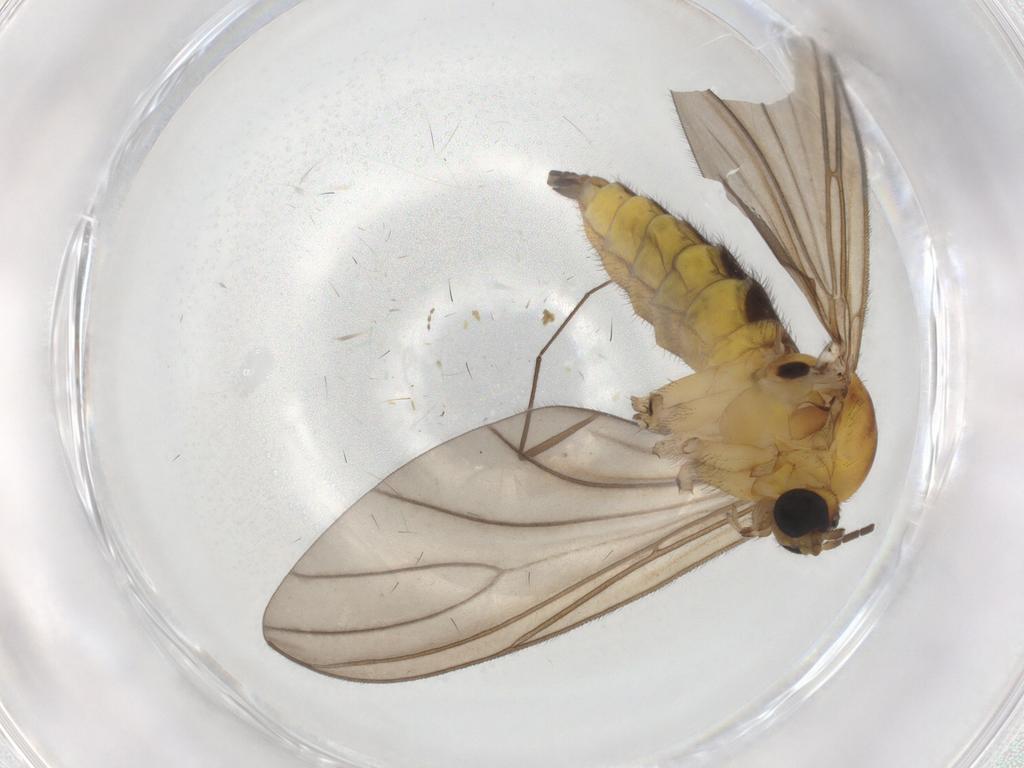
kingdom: Animalia
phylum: Arthropoda
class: Insecta
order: Diptera
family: Sciaridae
